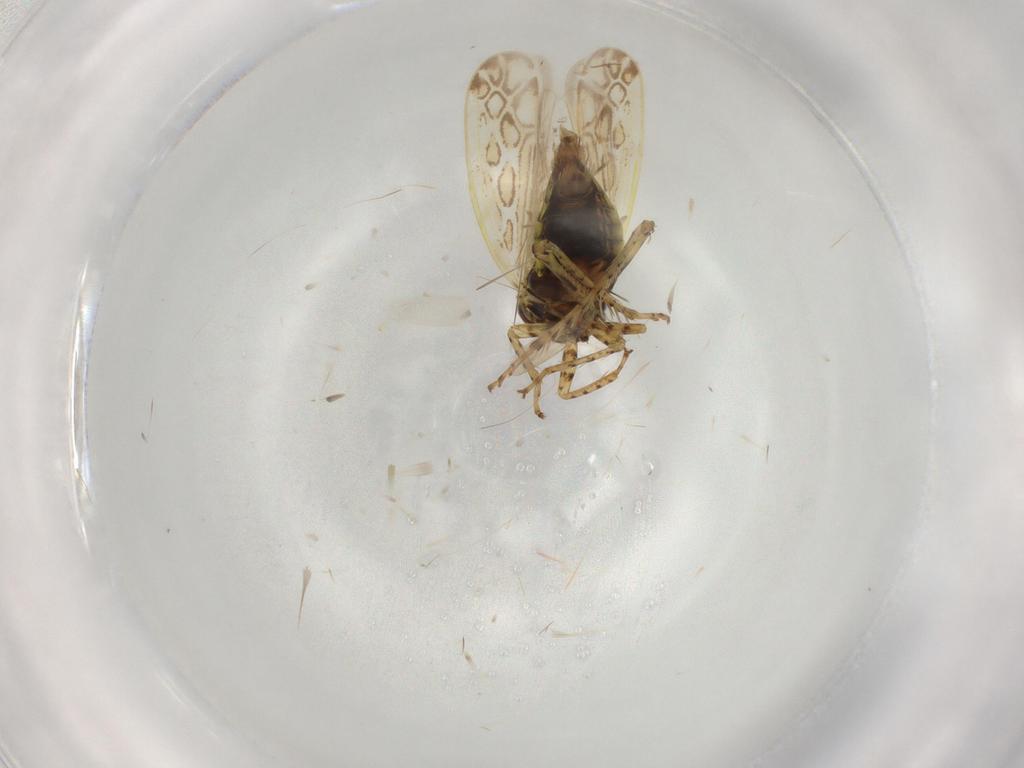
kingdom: Animalia
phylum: Arthropoda
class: Insecta
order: Hemiptera
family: Cicadellidae
